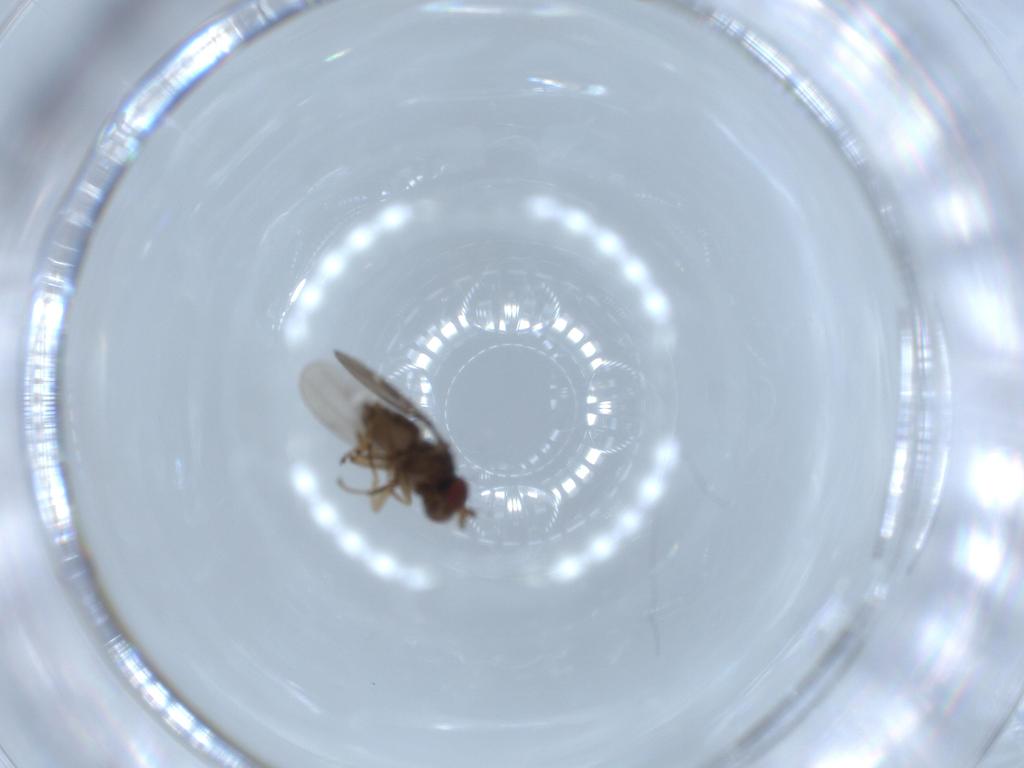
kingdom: Animalia
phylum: Arthropoda
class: Insecta
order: Diptera
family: Ephydridae
